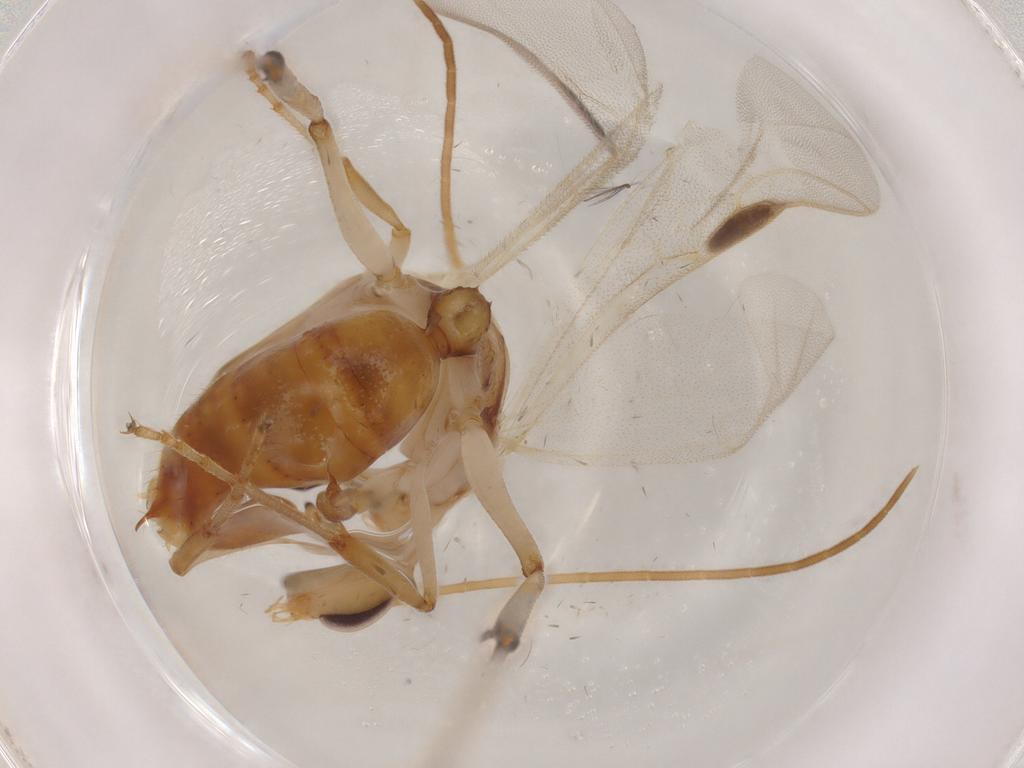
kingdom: Animalia
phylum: Arthropoda
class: Insecta
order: Hymenoptera
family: Formicidae
